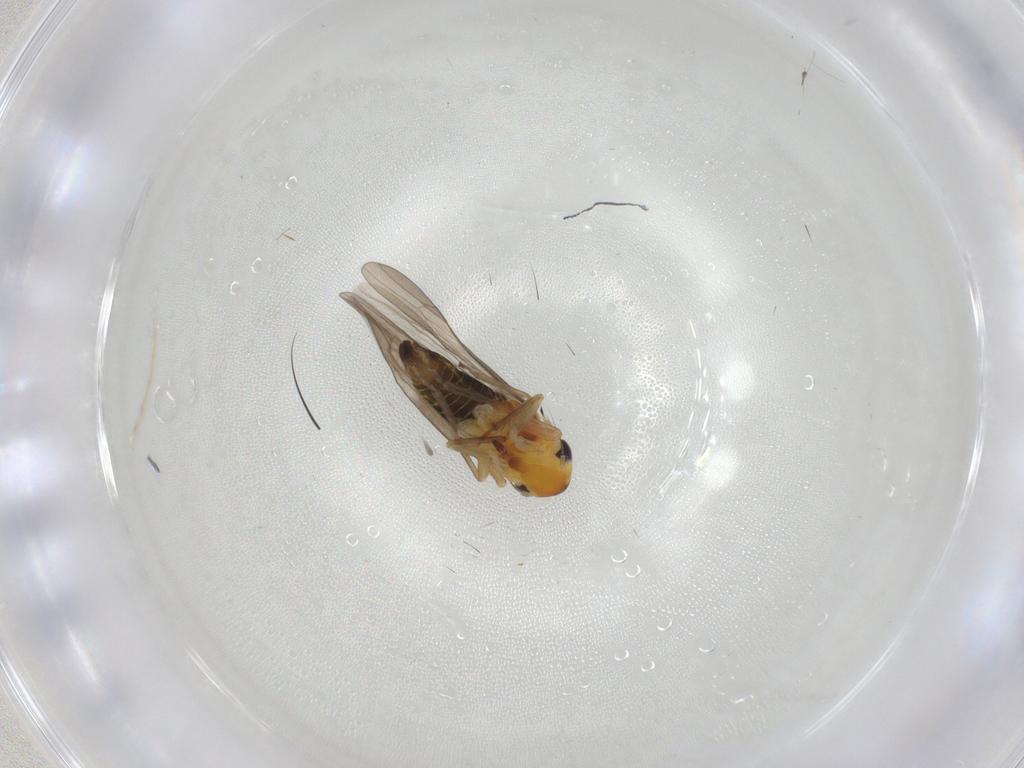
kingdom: Animalia
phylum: Arthropoda
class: Insecta
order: Hemiptera
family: Cicadellidae
